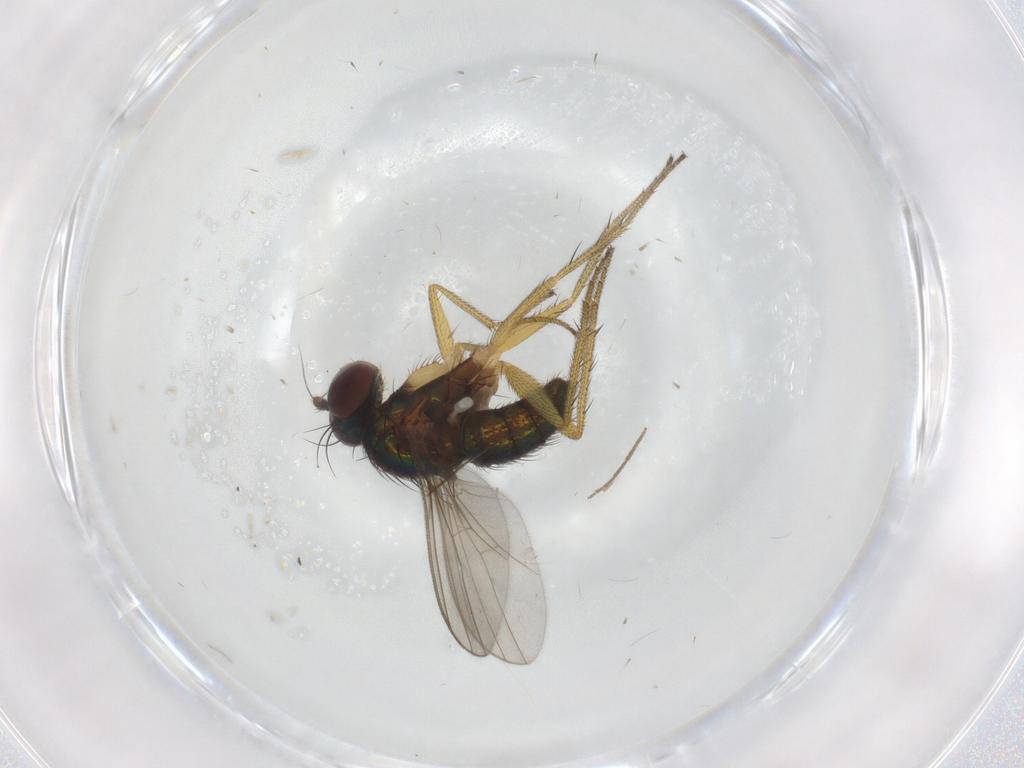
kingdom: Animalia
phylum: Arthropoda
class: Insecta
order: Diptera
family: Dolichopodidae
